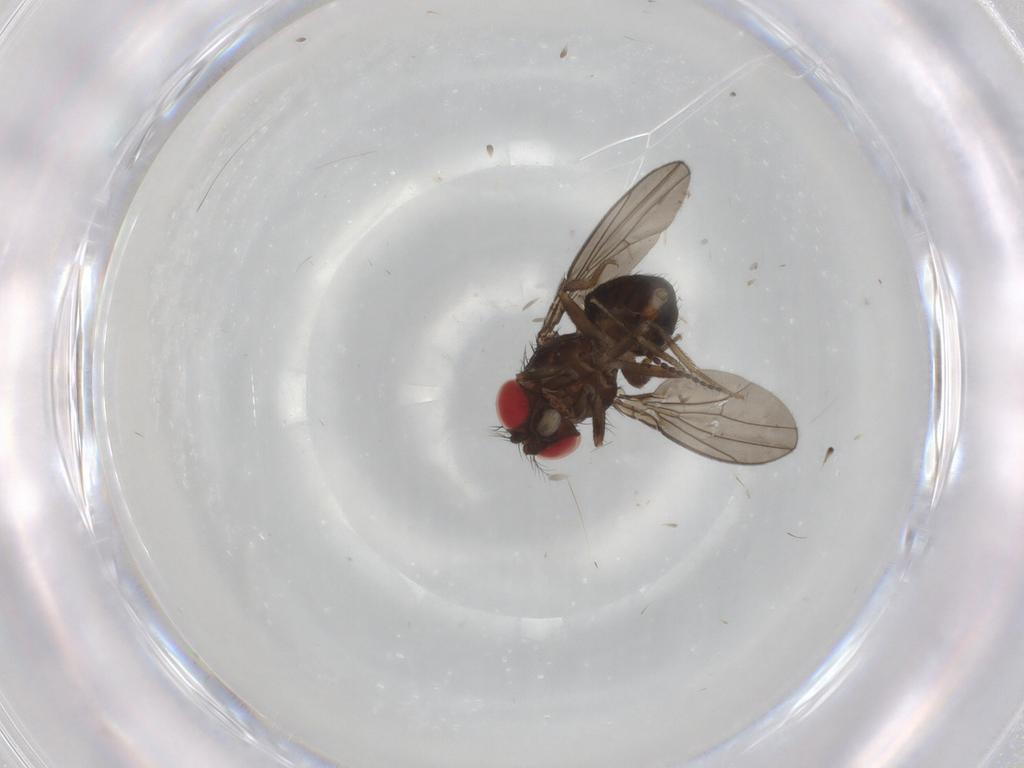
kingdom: Animalia
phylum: Arthropoda
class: Insecta
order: Diptera
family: Drosophilidae
